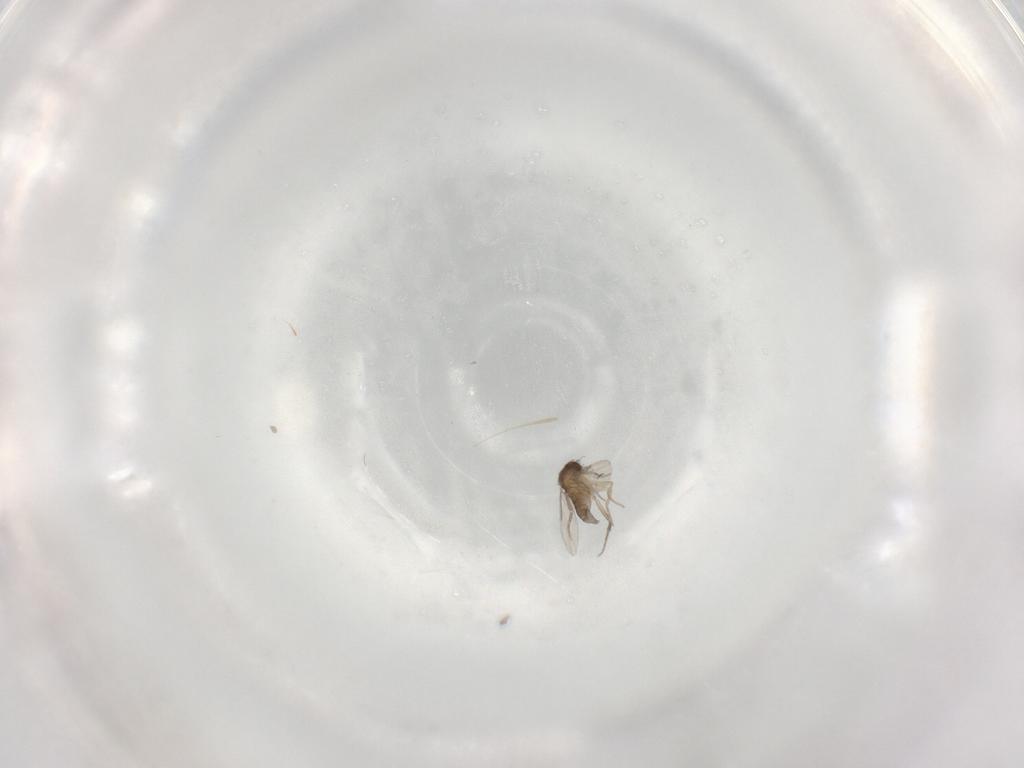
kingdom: Animalia
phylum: Arthropoda
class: Insecta
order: Diptera
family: Phoridae
